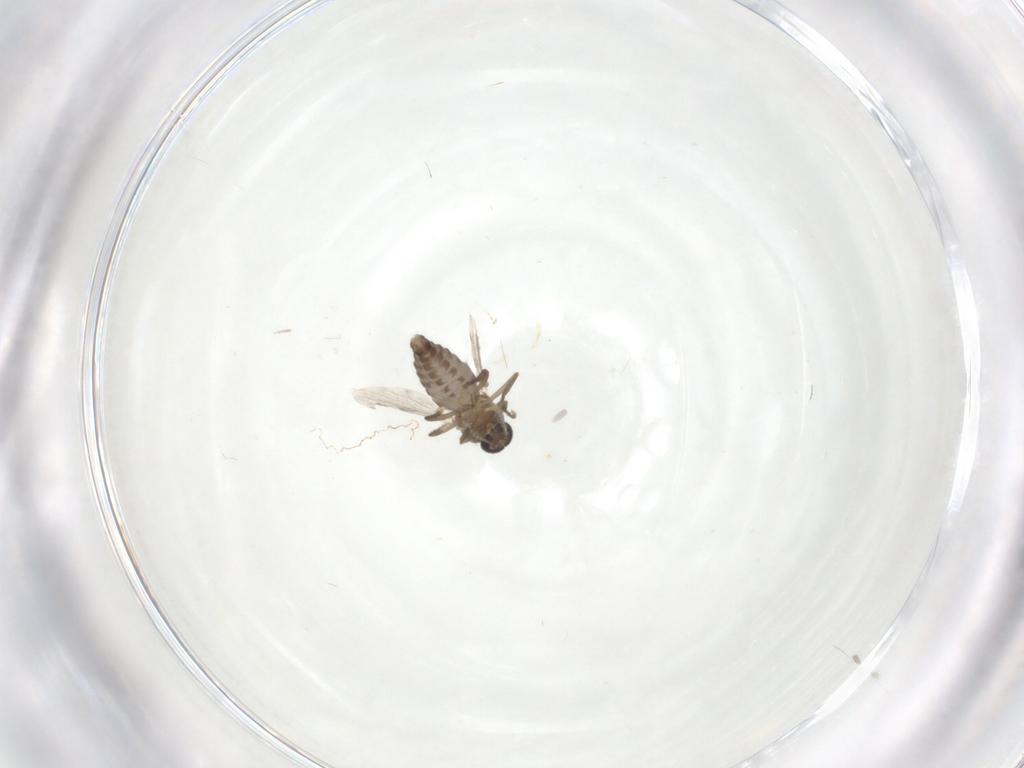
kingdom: Animalia
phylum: Arthropoda
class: Insecta
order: Diptera
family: Ceratopogonidae
